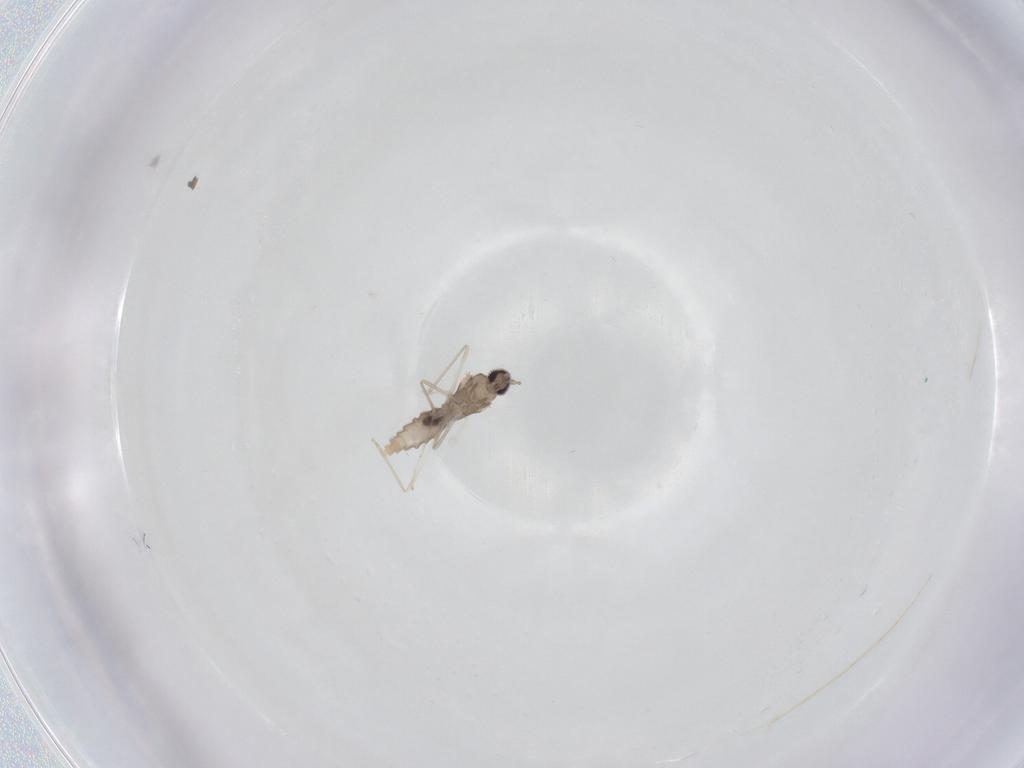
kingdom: Animalia
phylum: Arthropoda
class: Insecta
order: Diptera
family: Cecidomyiidae
